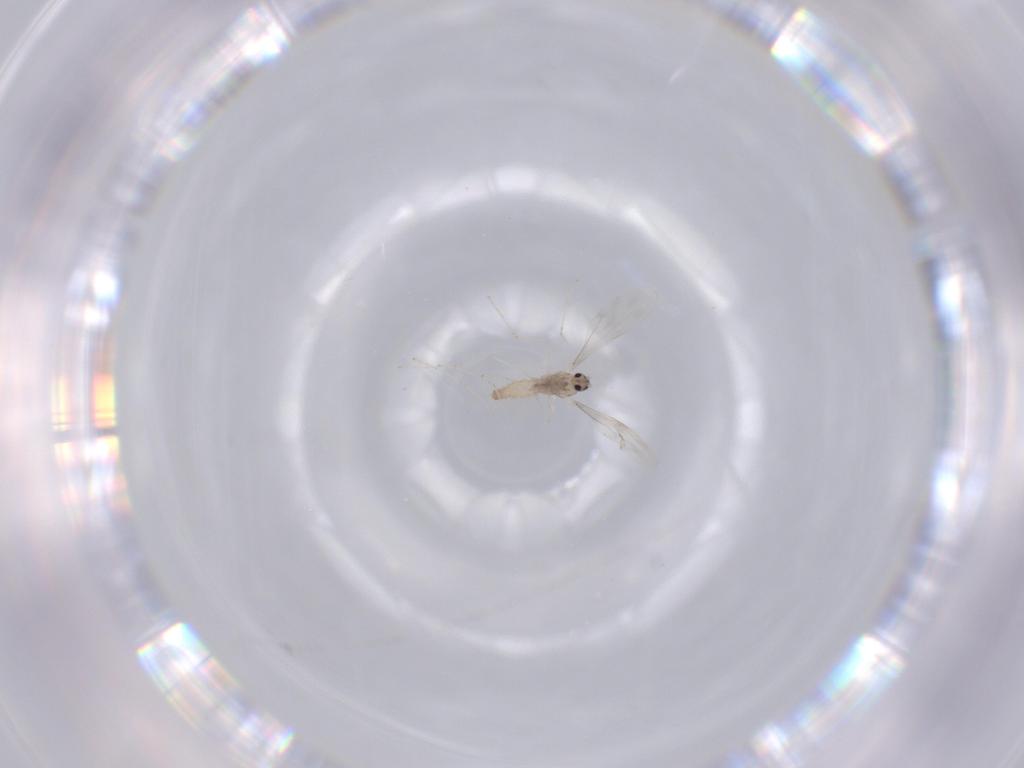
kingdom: Animalia
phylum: Arthropoda
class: Insecta
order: Diptera
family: Cecidomyiidae
